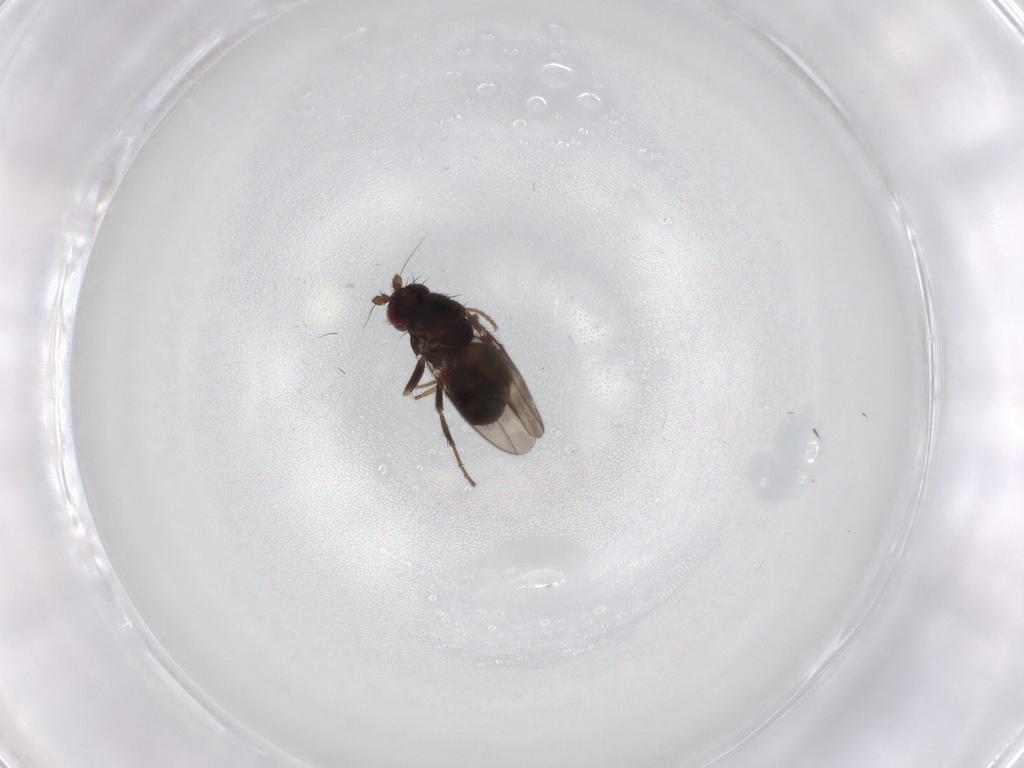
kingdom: Animalia
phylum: Arthropoda
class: Insecta
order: Diptera
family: Sphaeroceridae
